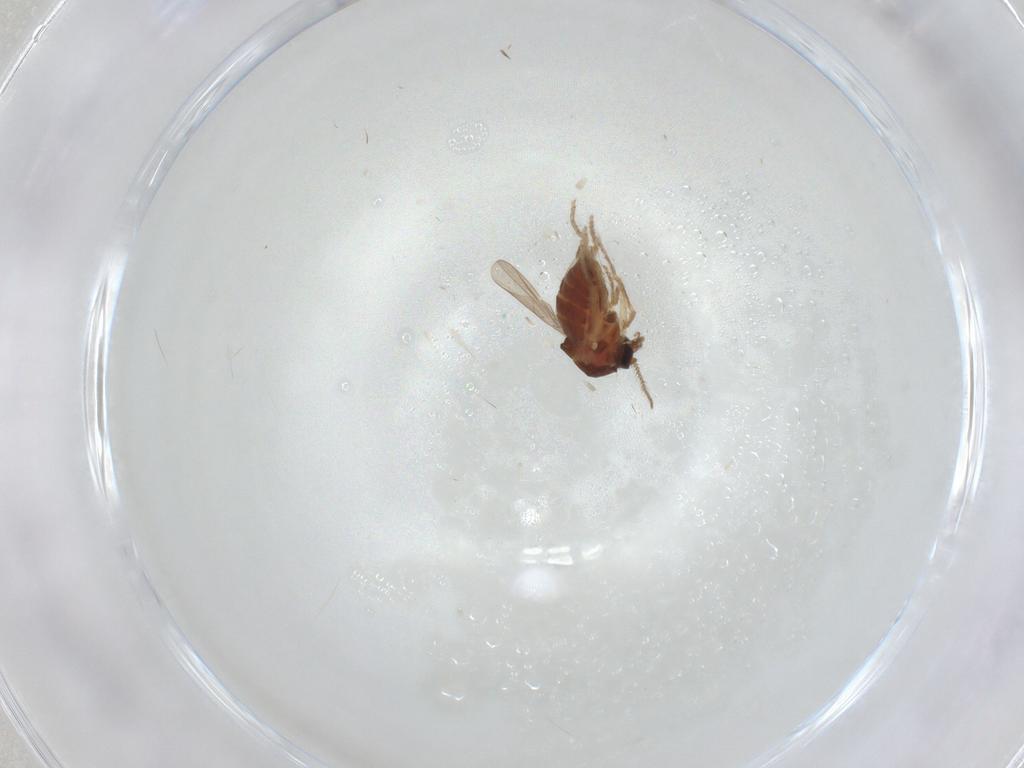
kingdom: Animalia
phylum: Arthropoda
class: Insecta
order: Diptera
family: Ceratopogonidae
